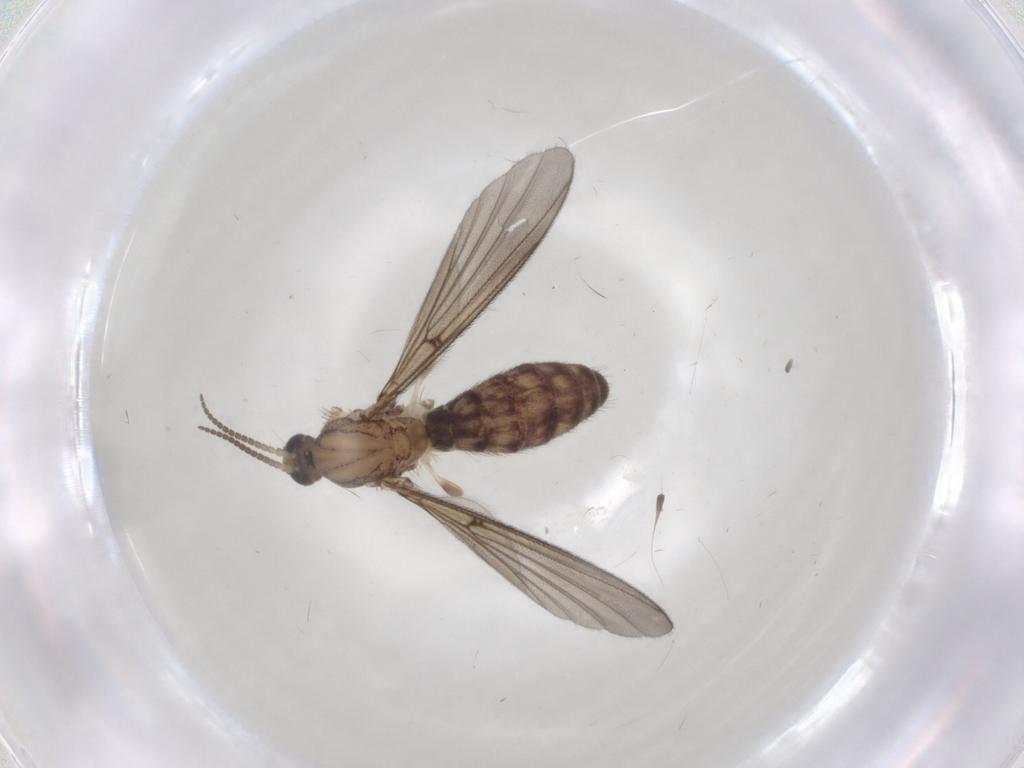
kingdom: Animalia
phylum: Arthropoda
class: Insecta
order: Diptera
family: Mycetophilidae
